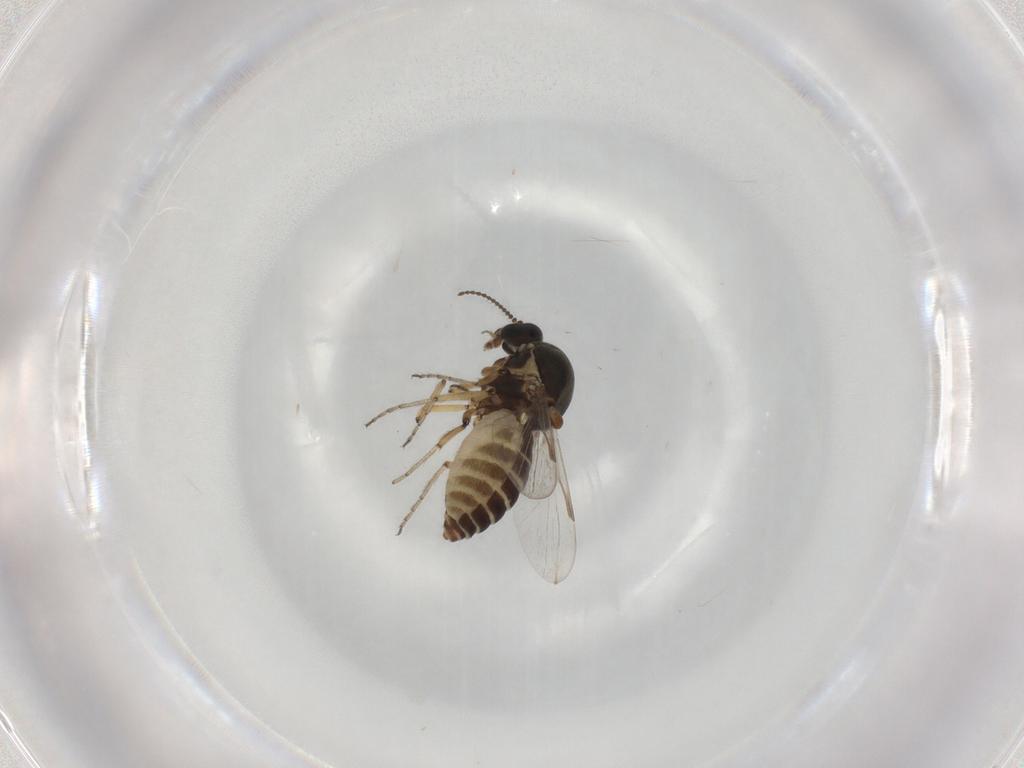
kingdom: Animalia
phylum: Arthropoda
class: Insecta
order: Diptera
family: Ceratopogonidae
